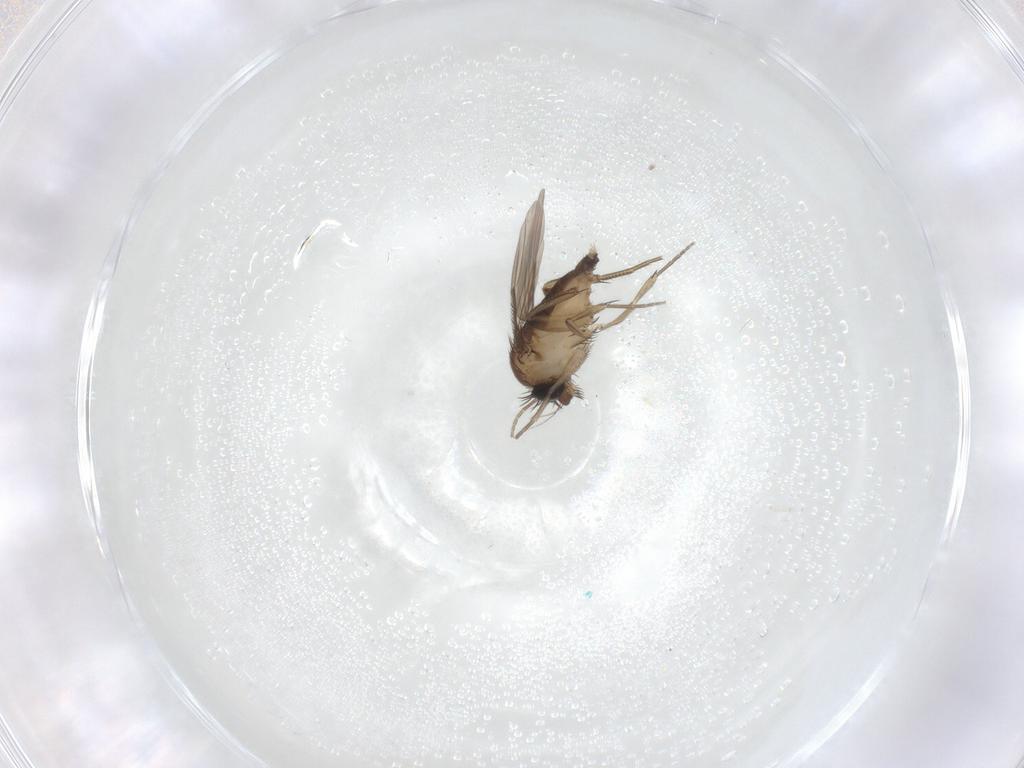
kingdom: Animalia
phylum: Arthropoda
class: Insecta
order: Diptera
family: Phoridae
